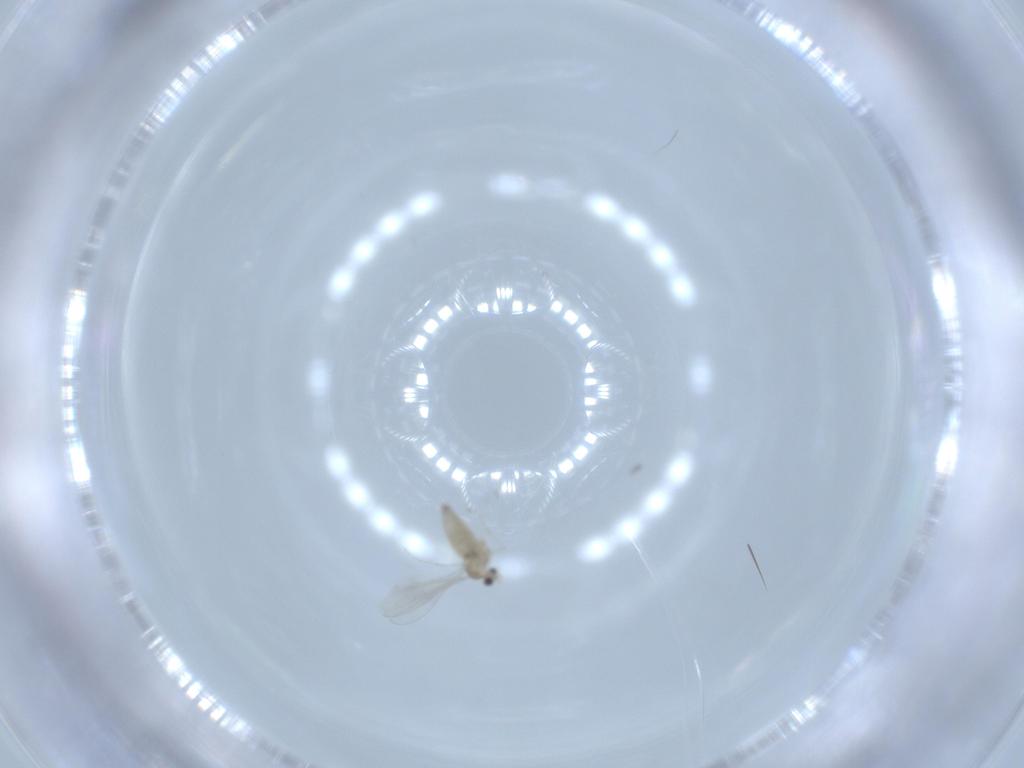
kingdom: Animalia
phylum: Arthropoda
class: Insecta
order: Diptera
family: Cecidomyiidae
